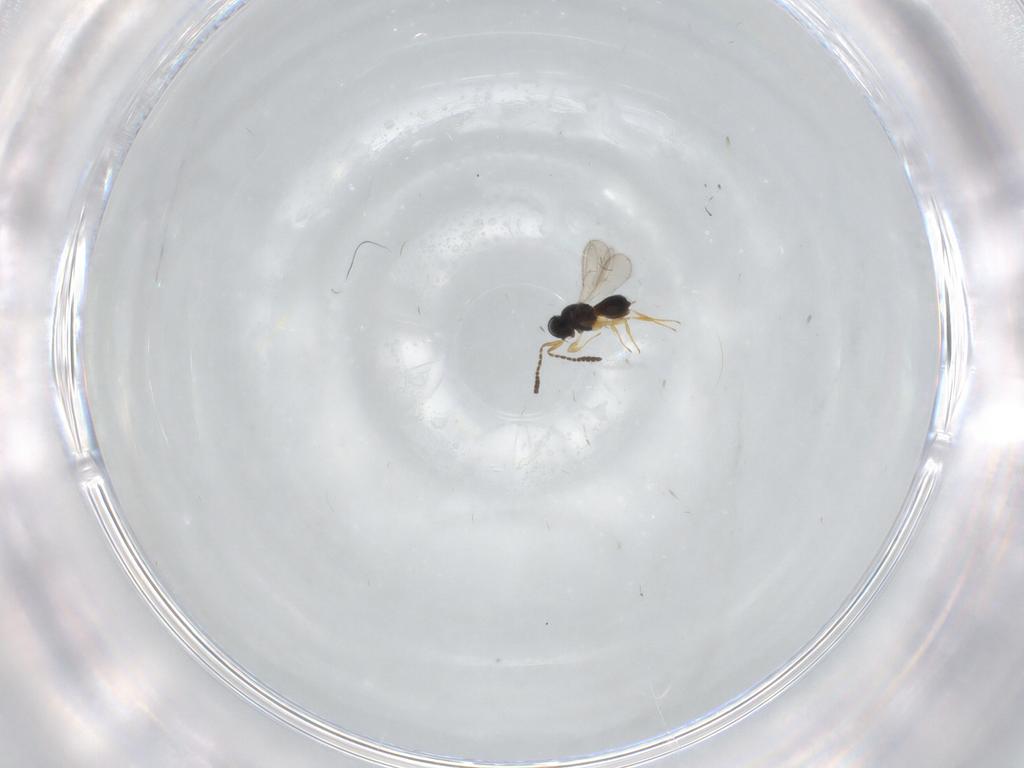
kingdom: Animalia
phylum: Arthropoda
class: Insecta
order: Hymenoptera
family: Scelionidae
